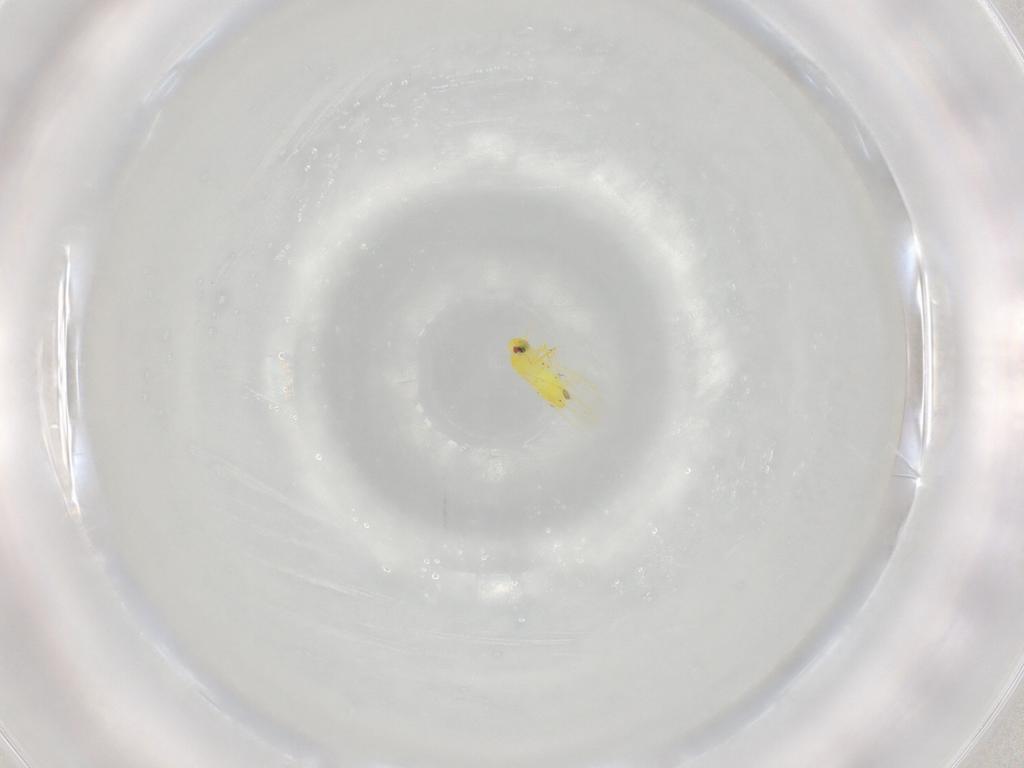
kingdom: Animalia
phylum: Arthropoda
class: Insecta
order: Hemiptera
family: Aleyrodidae
